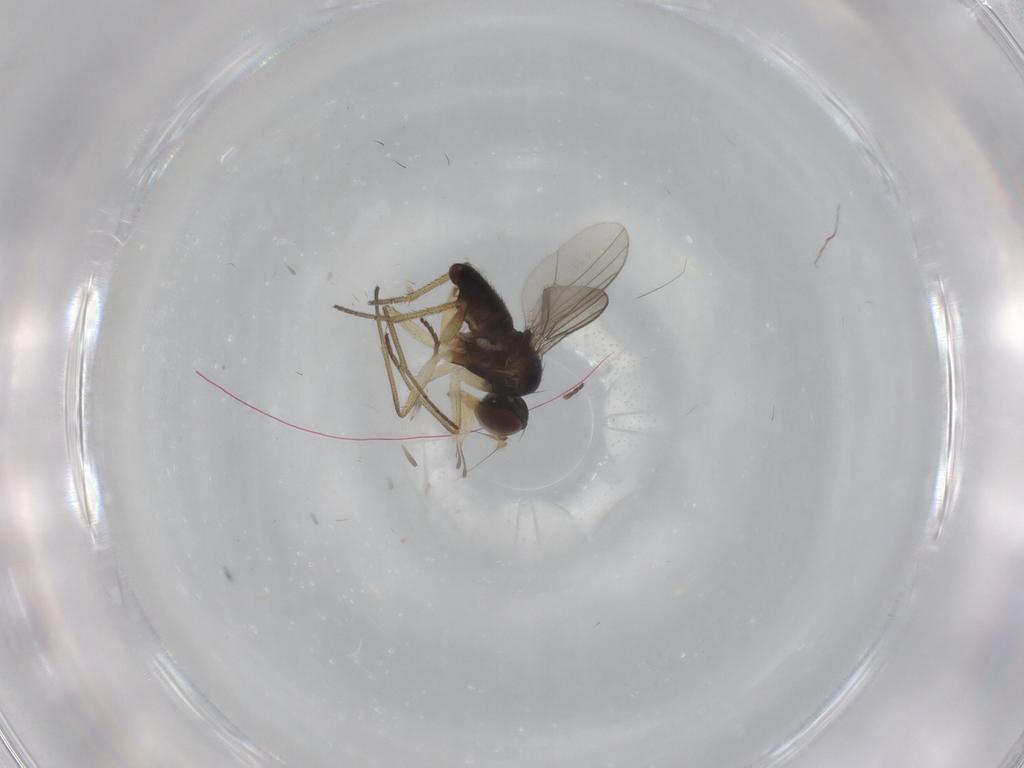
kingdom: Animalia
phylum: Arthropoda
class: Insecta
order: Diptera
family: Dolichopodidae
